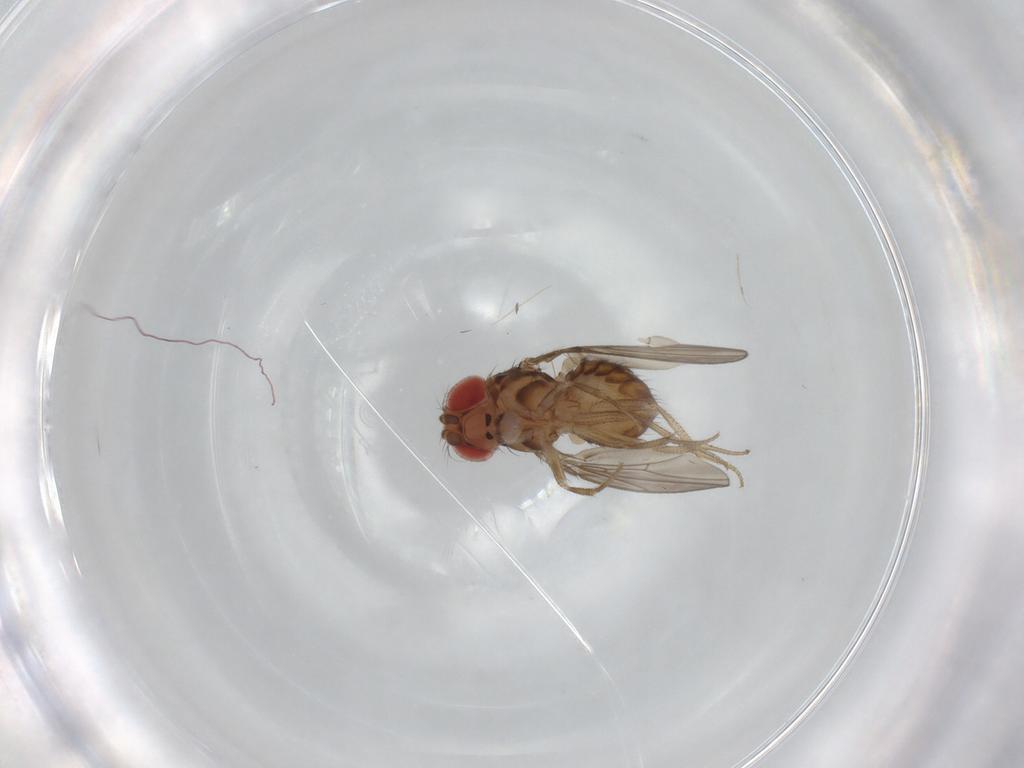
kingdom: Animalia
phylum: Arthropoda
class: Insecta
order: Diptera
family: Drosophilidae
